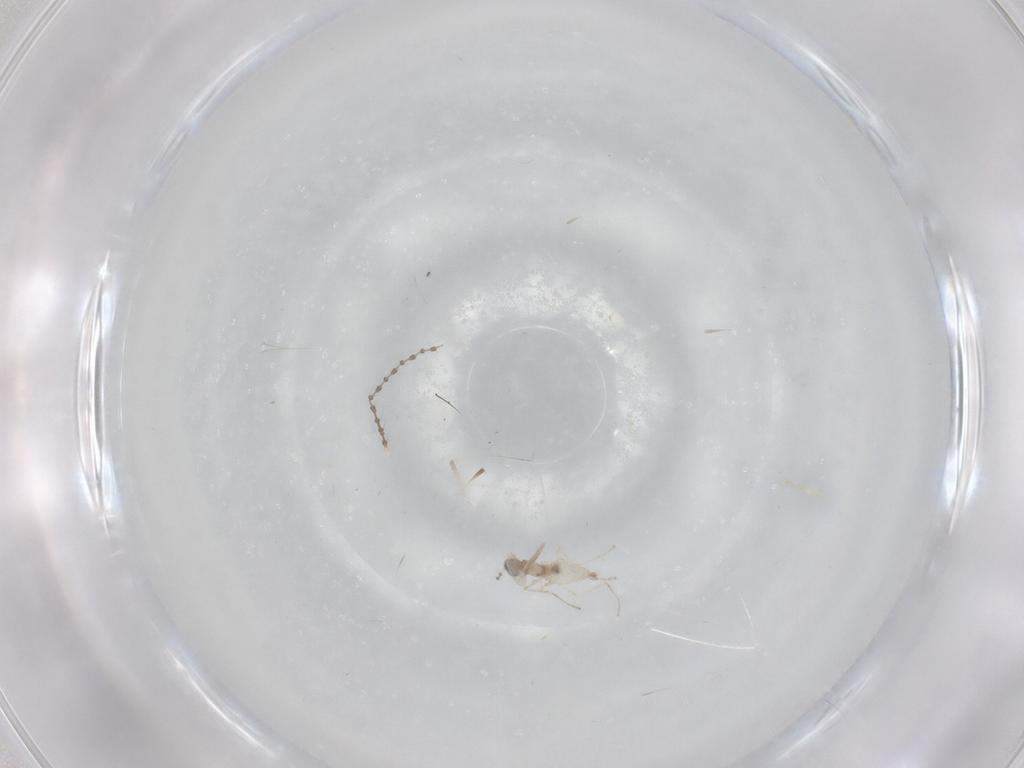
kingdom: Animalia
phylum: Arthropoda
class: Insecta
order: Diptera
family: Cecidomyiidae
